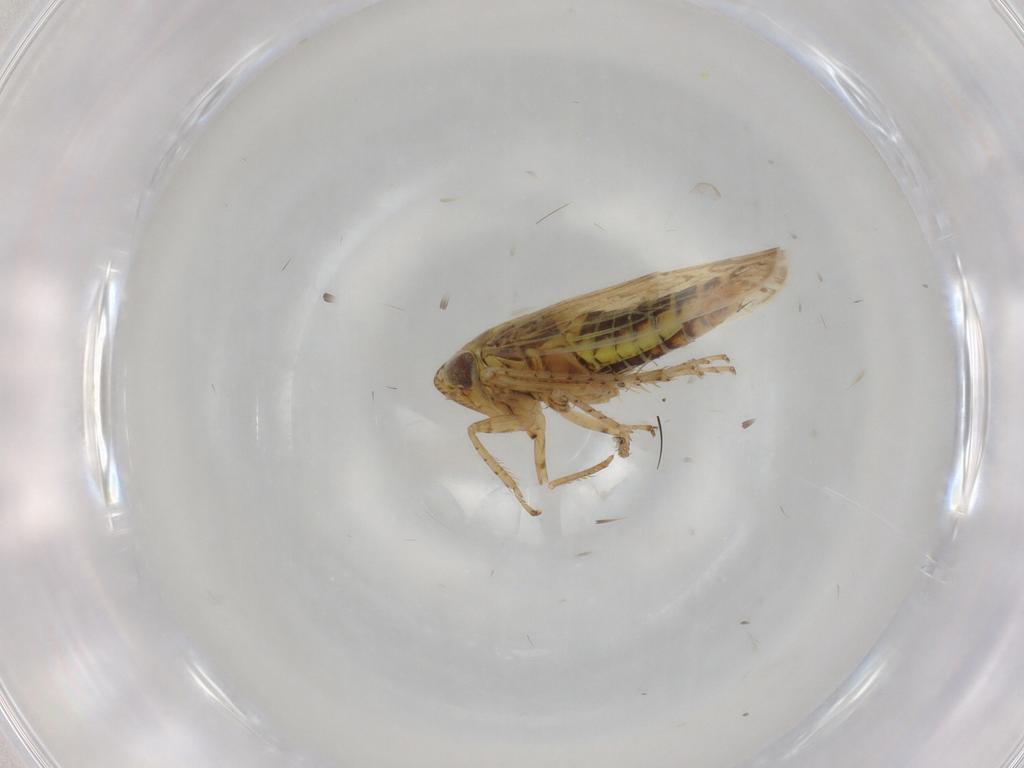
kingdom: Animalia
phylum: Arthropoda
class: Insecta
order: Hemiptera
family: Cicadellidae
